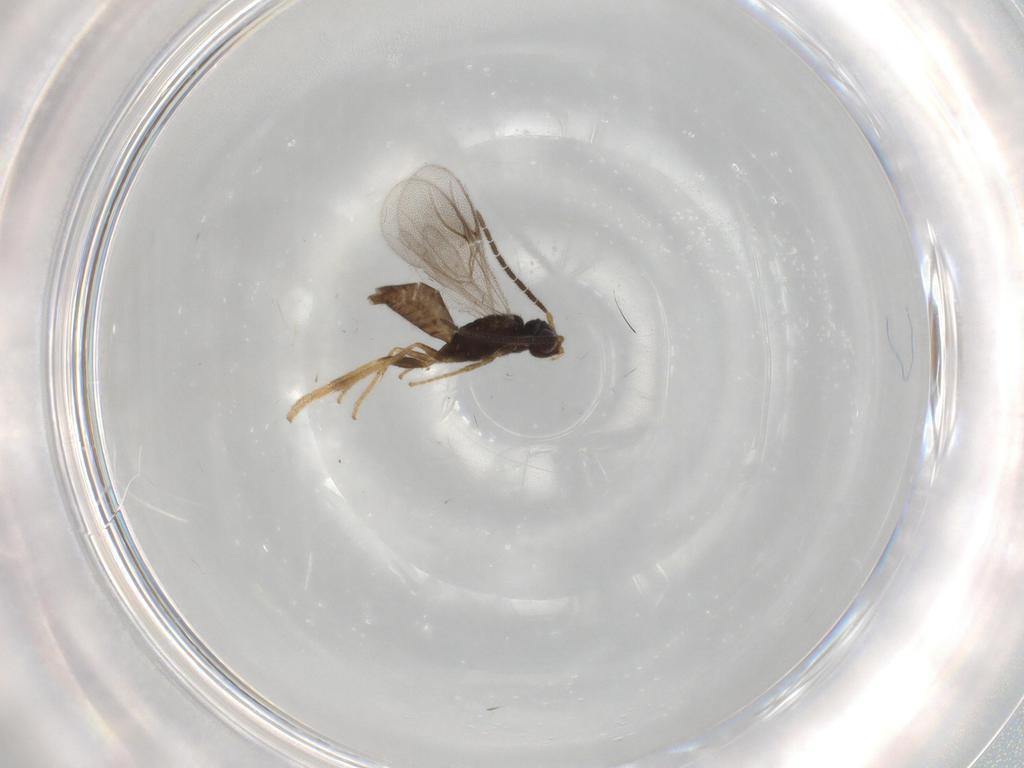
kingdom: Animalia
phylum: Arthropoda
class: Insecta
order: Hymenoptera
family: Dryinidae
